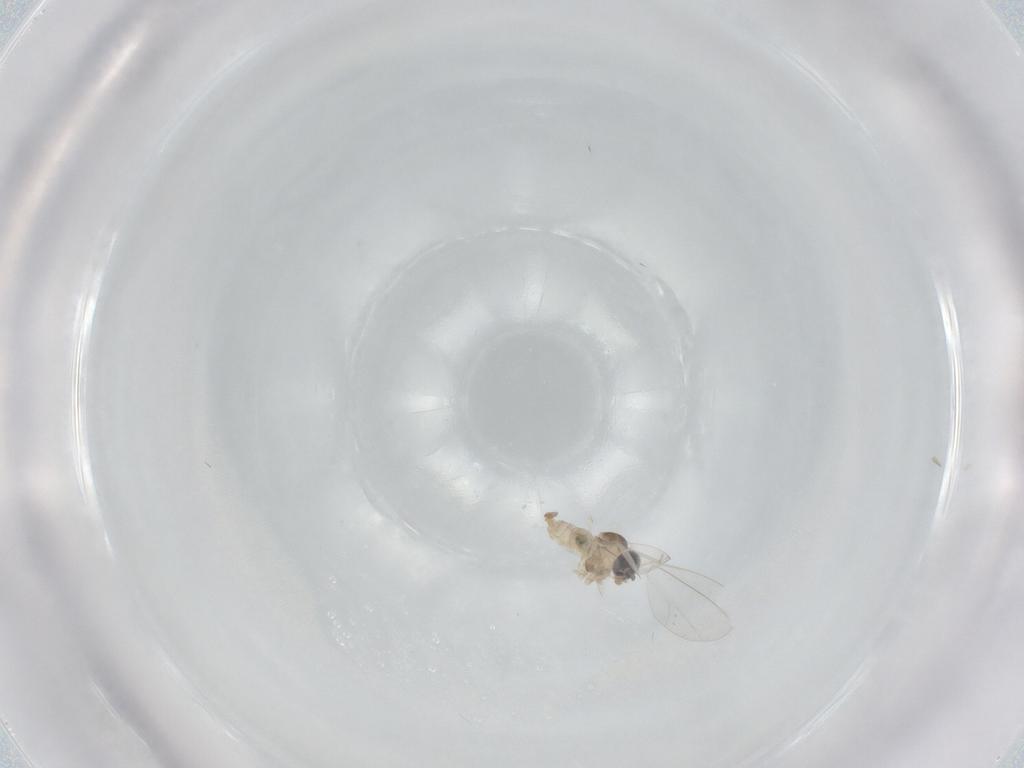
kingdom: Animalia
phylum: Arthropoda
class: Insecta
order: Diptera
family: Cecidomyiidae
